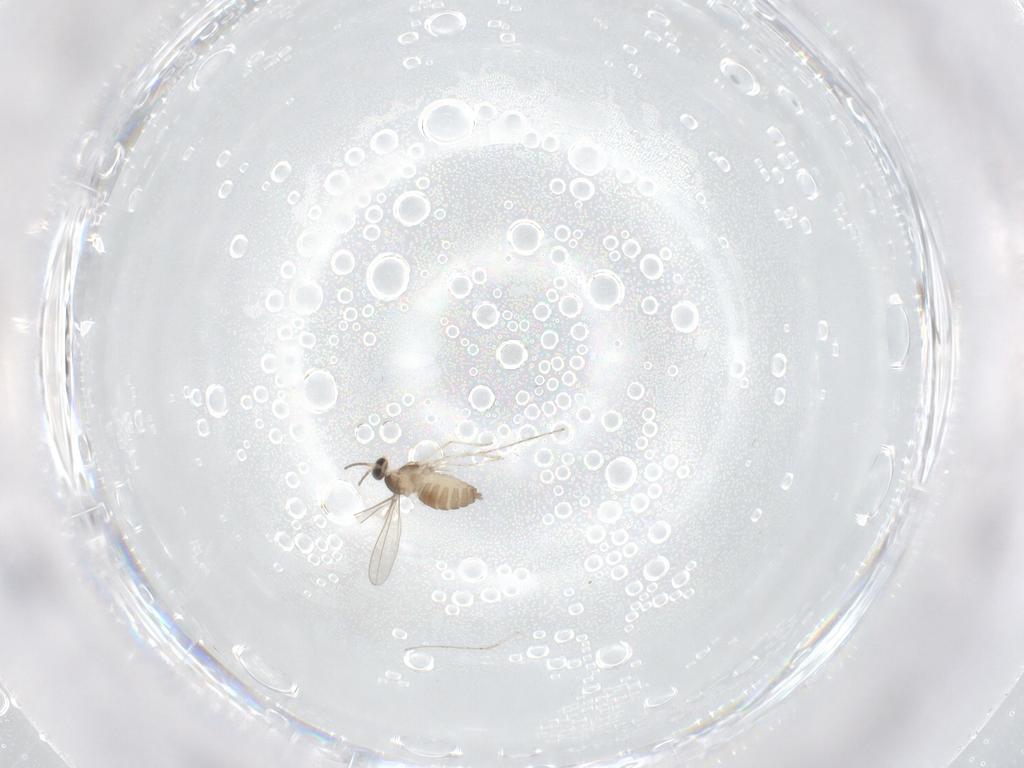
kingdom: Animalia
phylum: Arthropoda
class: Insecta
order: Diptera
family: Cecidomyiidae
